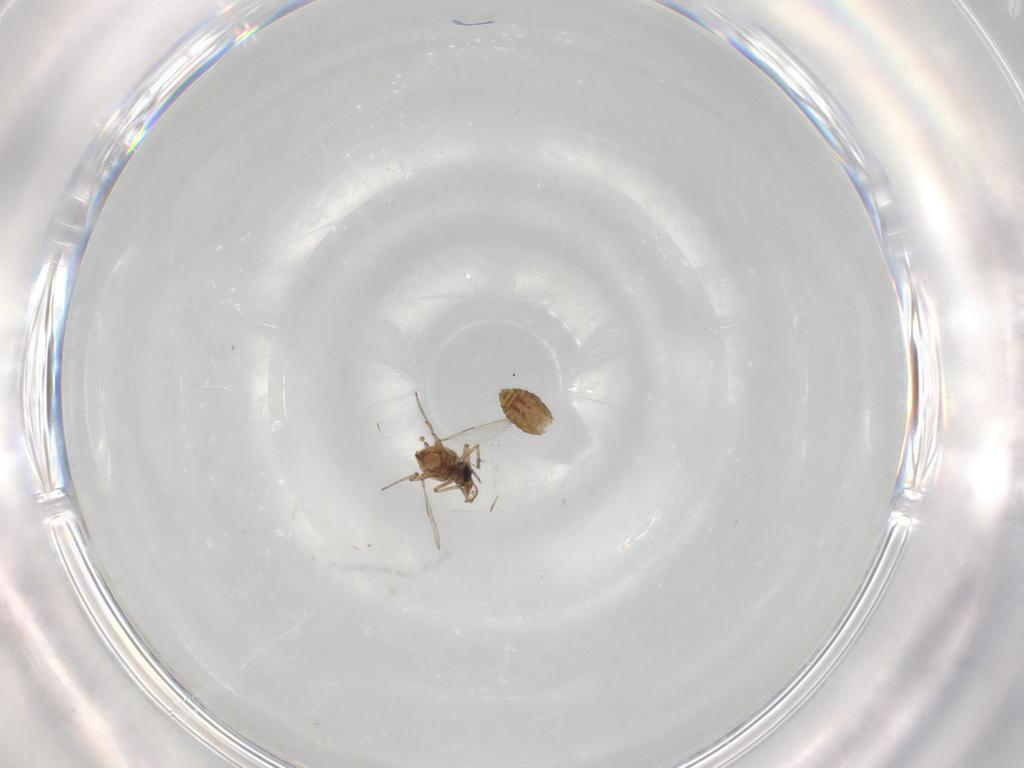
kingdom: Animalia
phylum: Arthropoda
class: Insecta
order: Diptera
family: Ceratopogonidae
